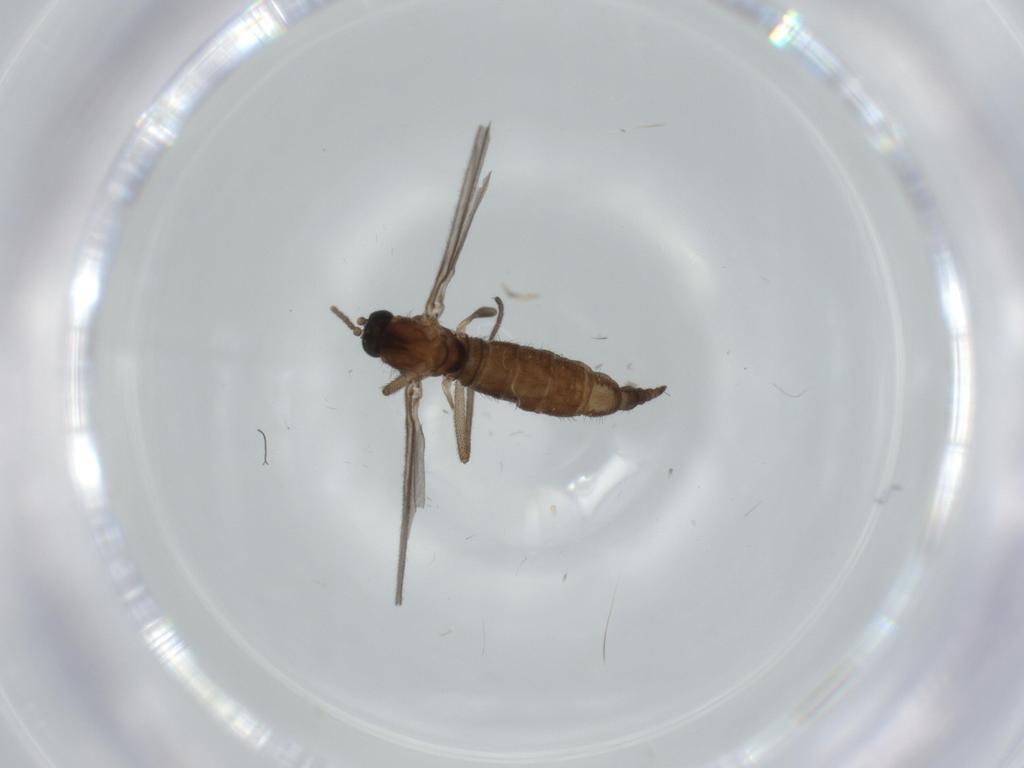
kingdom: Animalia
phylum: Arthropoda
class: Insecta
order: Diptera
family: Sciaridae
